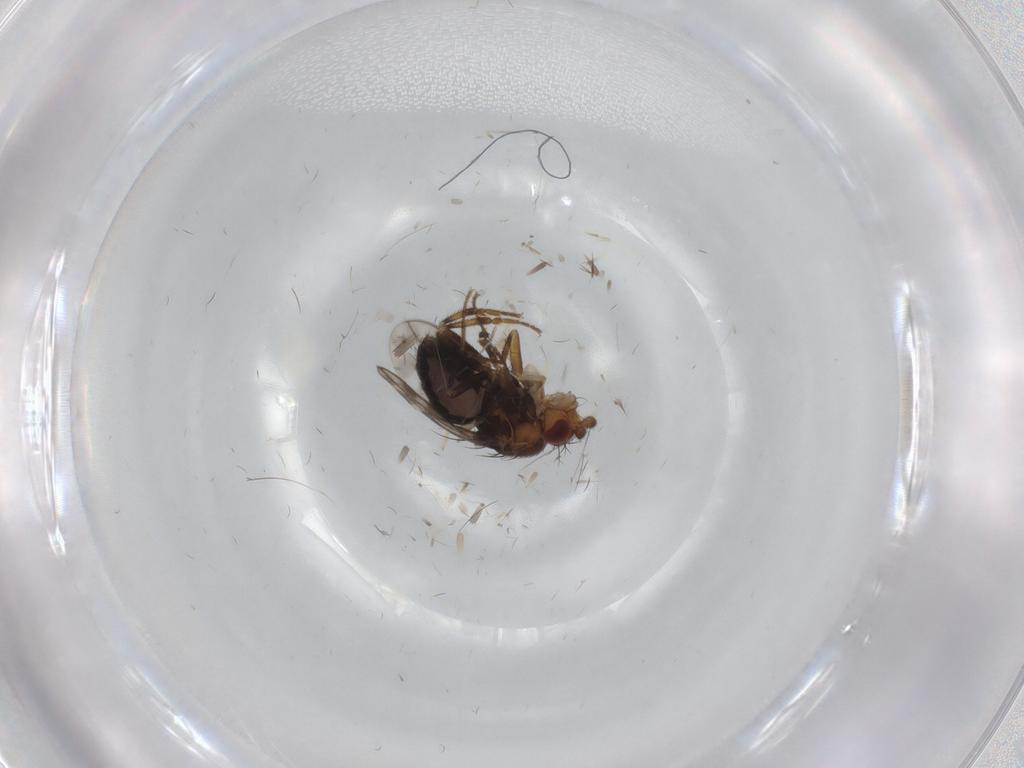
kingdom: Animalia
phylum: Arthropoda
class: Insecta
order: Diptera
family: Sphaeroceridae
